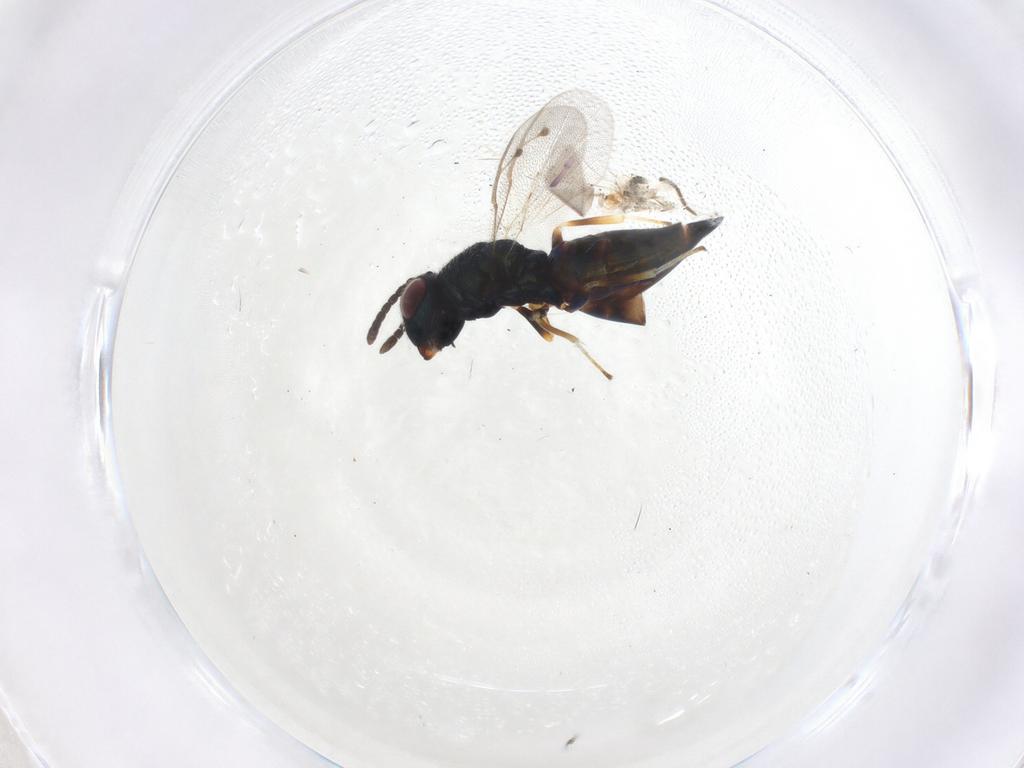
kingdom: Animalia
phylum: Arthropoda
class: Insecta
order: Hymenoptera
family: Pteromalidae
